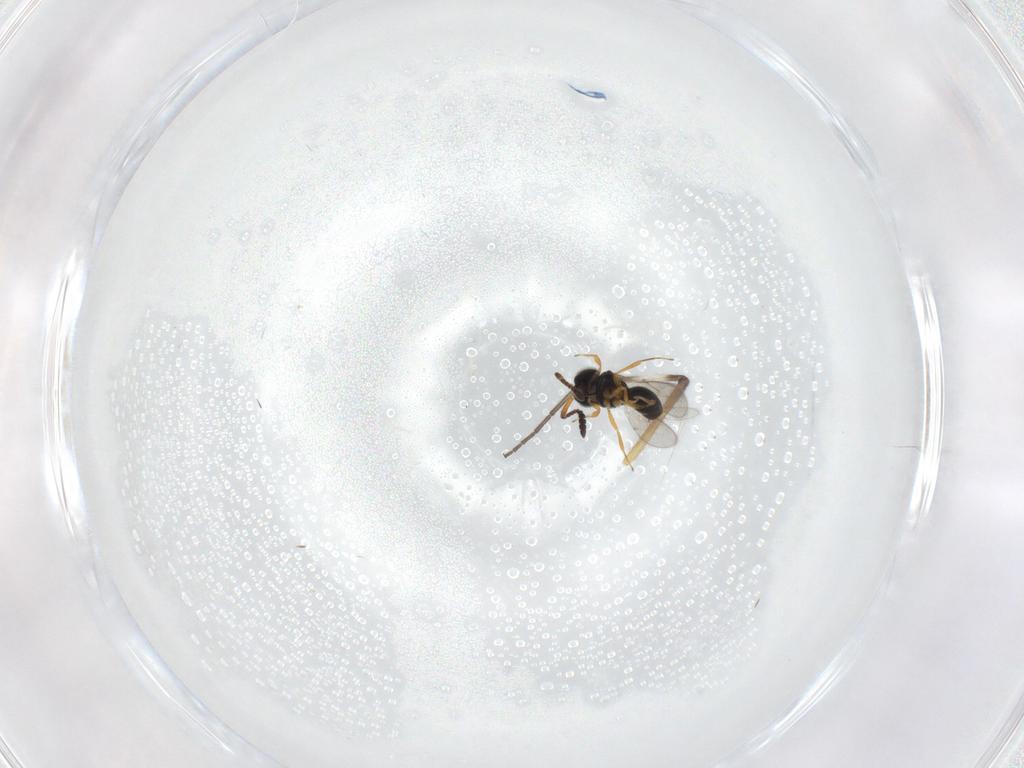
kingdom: Animalia
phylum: Arthropoda
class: Insecta
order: Hymenoptera
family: Scelionidae
